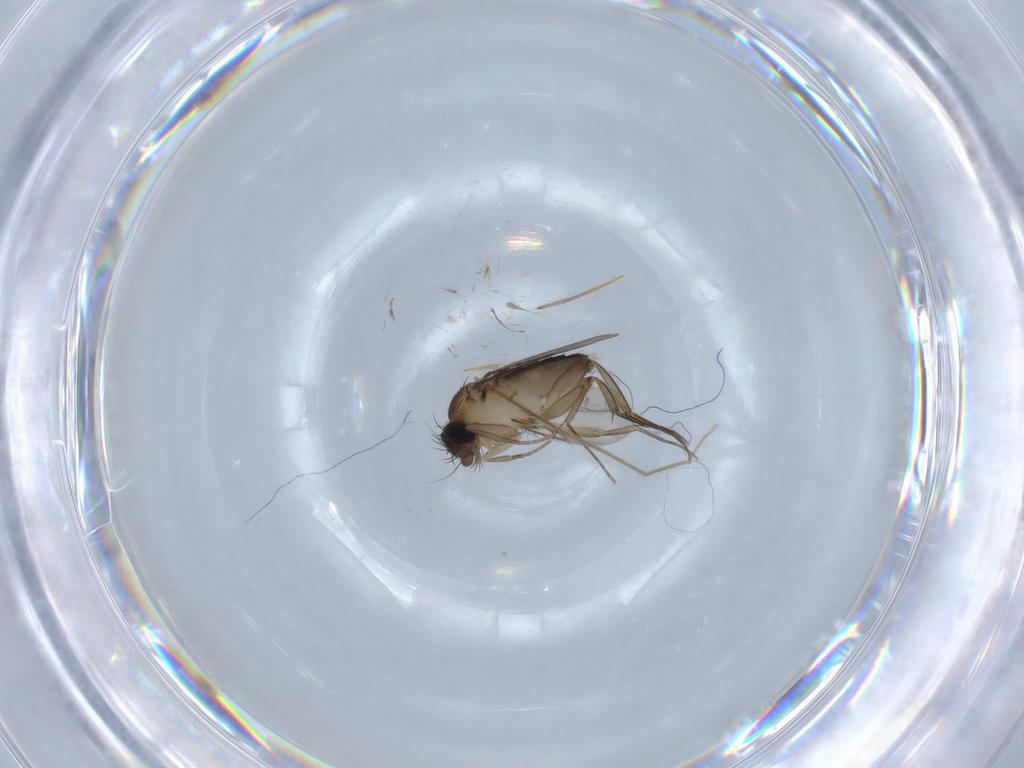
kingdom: Animalia
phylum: Arthropoda
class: Insecta
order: Diptera
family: Phoridae
